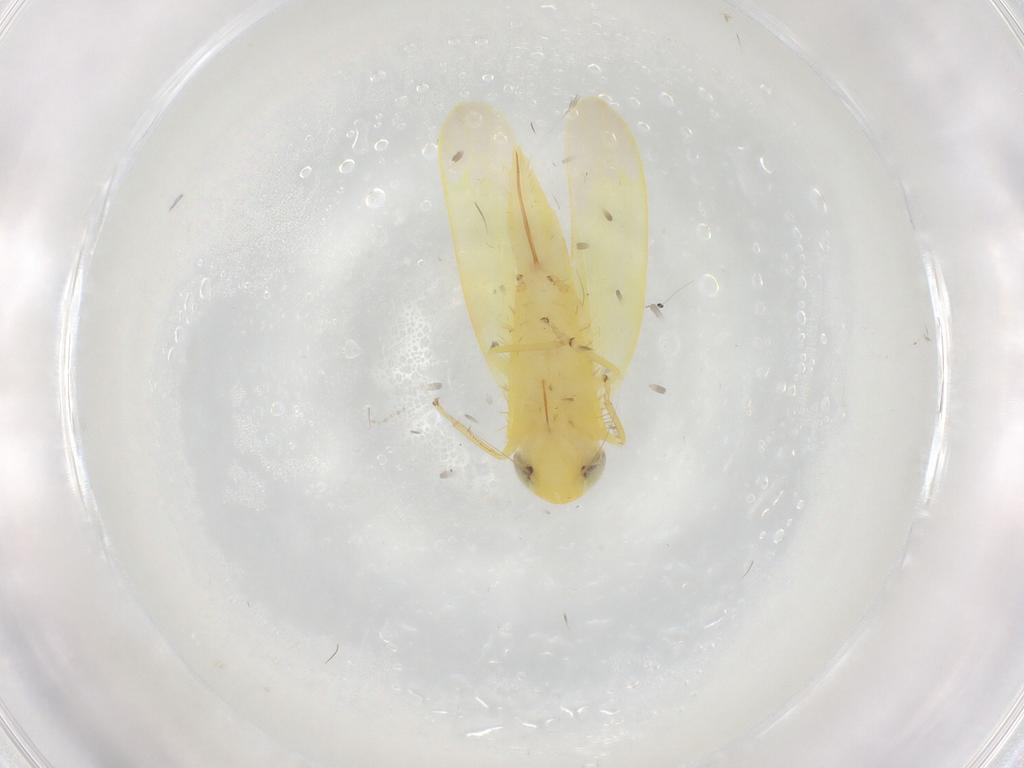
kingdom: Animalia
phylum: Arthropoda
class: Insecta
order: Hemiptera
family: Cicadellidae
